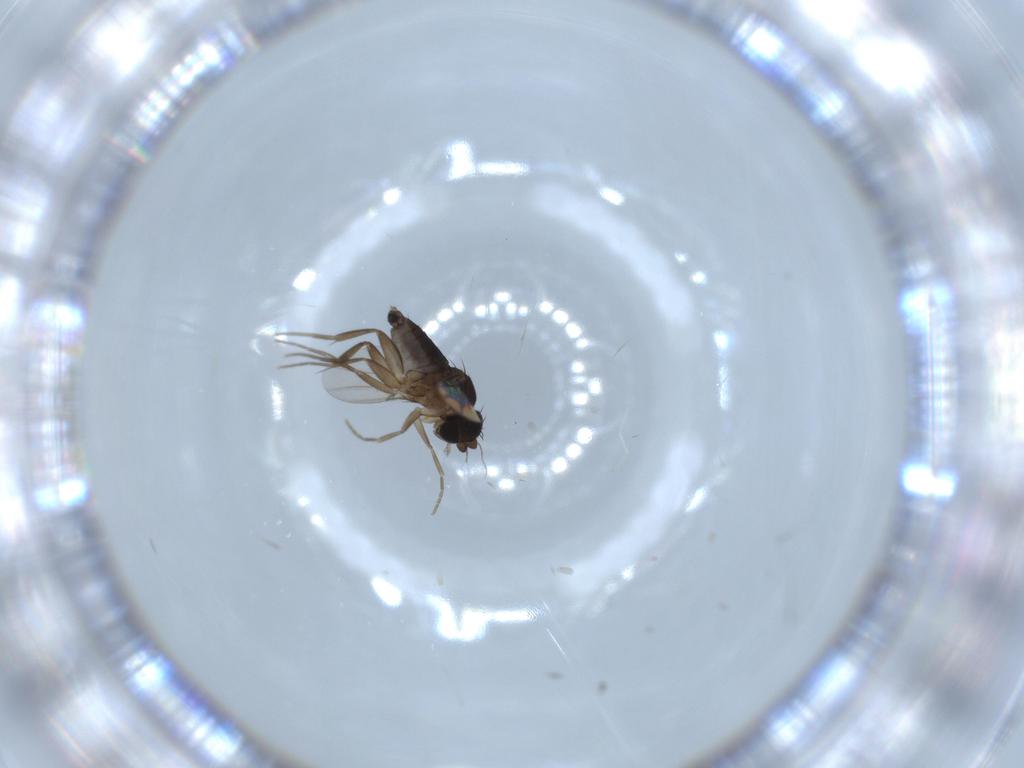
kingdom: Animalia
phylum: Arthropoda
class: Insecta
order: Diptera
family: Phoridae
